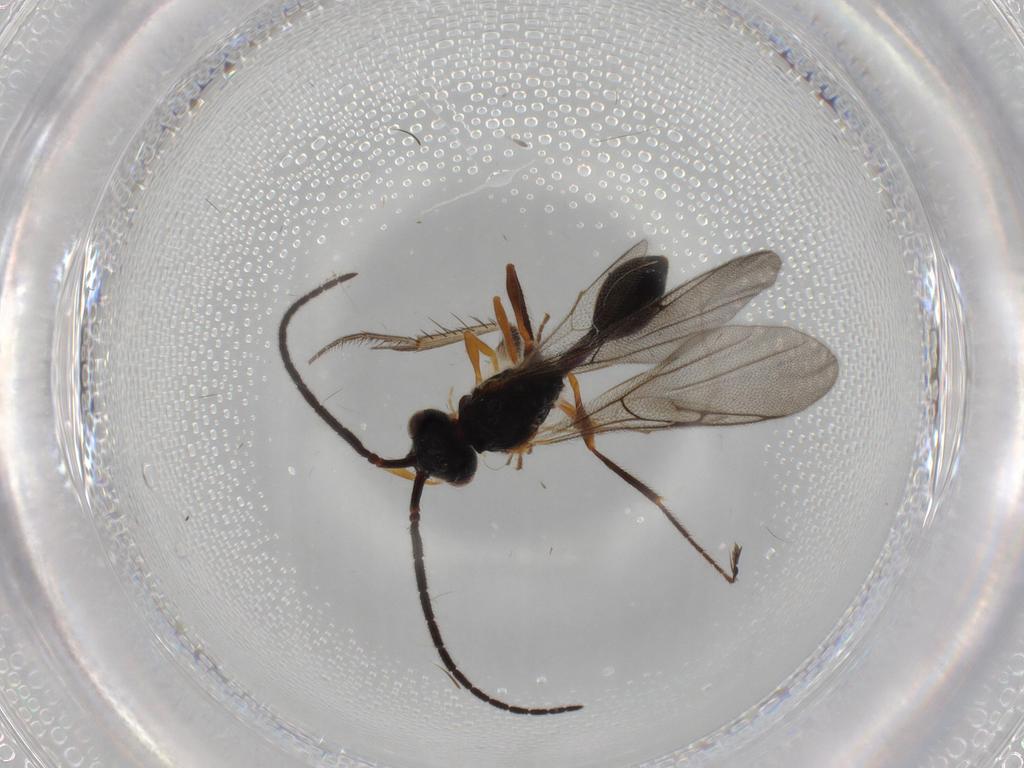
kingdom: Animalia
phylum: Arthropoda
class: Insecta
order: Hymenoptera
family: Diapriidae
